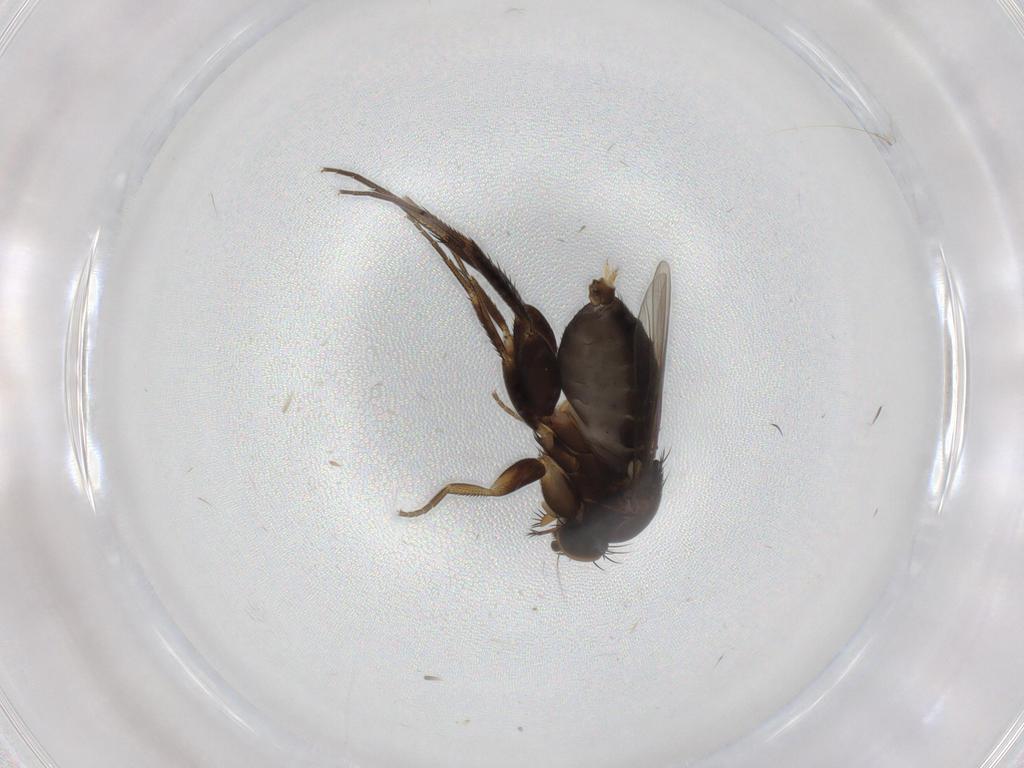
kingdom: Animalia
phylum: Arthropoda
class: Insecta
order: Diptera
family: Phoridae
